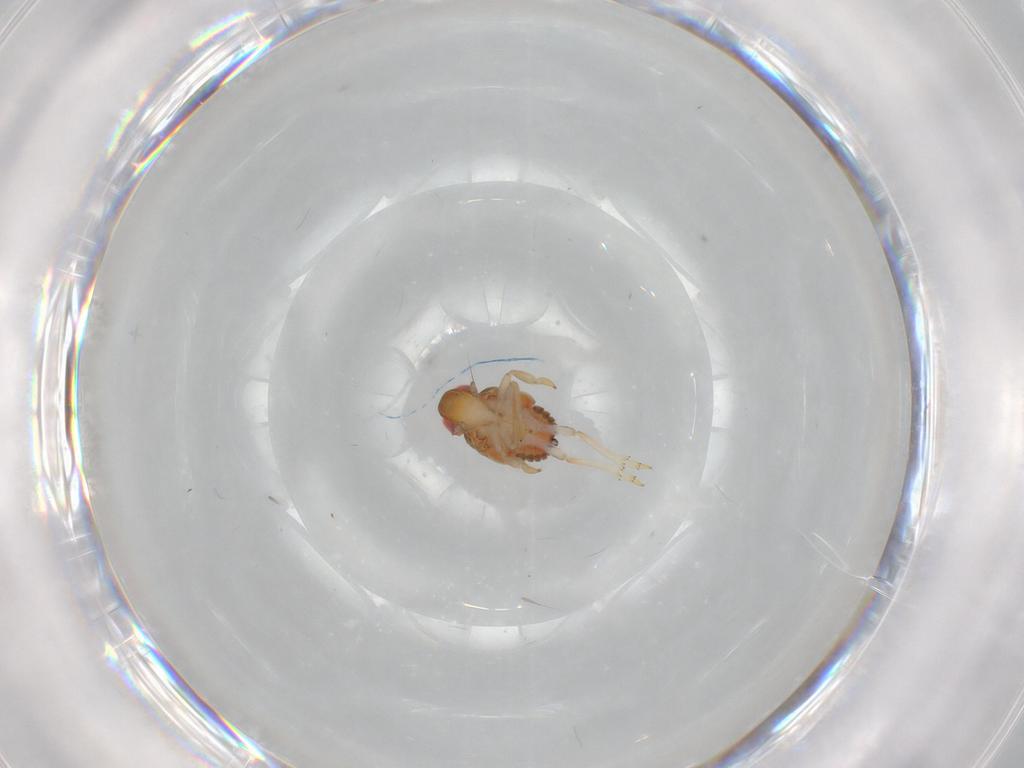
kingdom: Animalia
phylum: Arthropoda
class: Insecta
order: Hemiptera
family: Issidae
